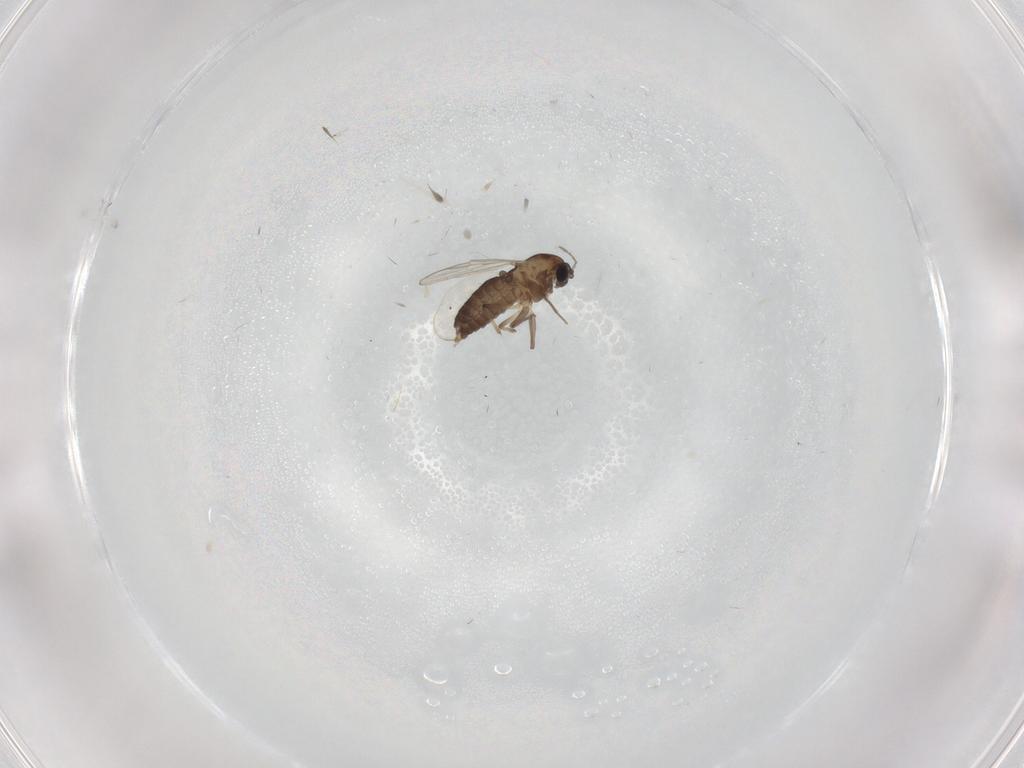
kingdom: Animalia
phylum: Arthropoda
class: Insecta
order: Diptera
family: Chironomidae
